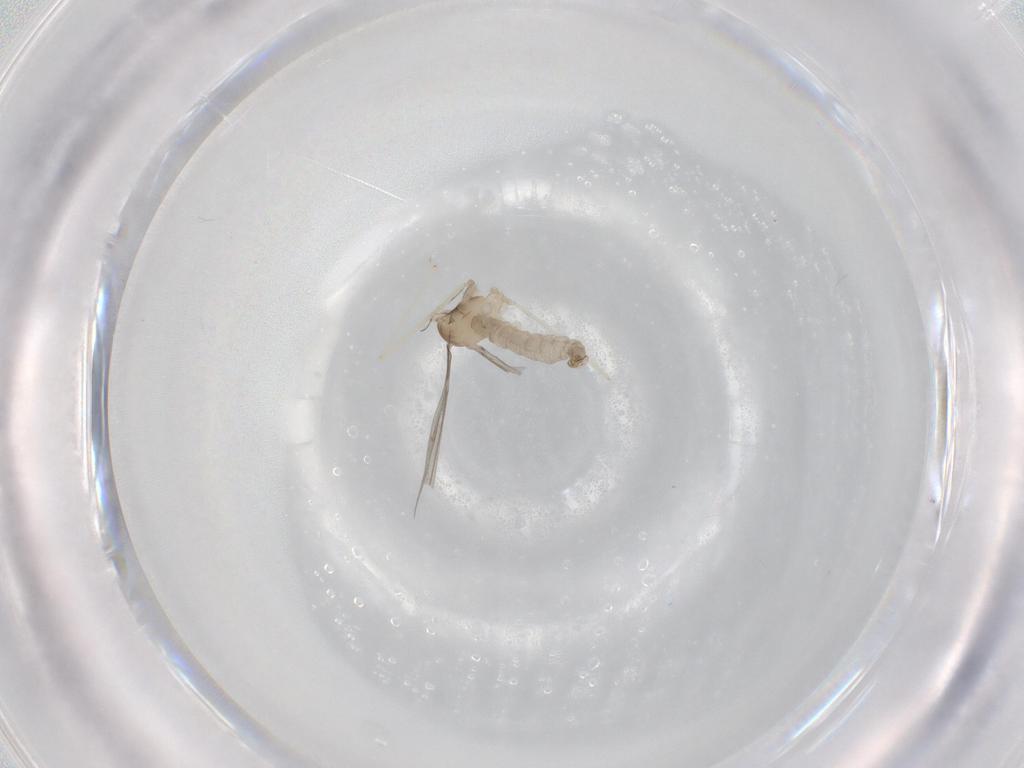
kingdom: Animalia
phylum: Arthropoda
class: Insecta
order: Diptera
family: Cecidomyiidae
